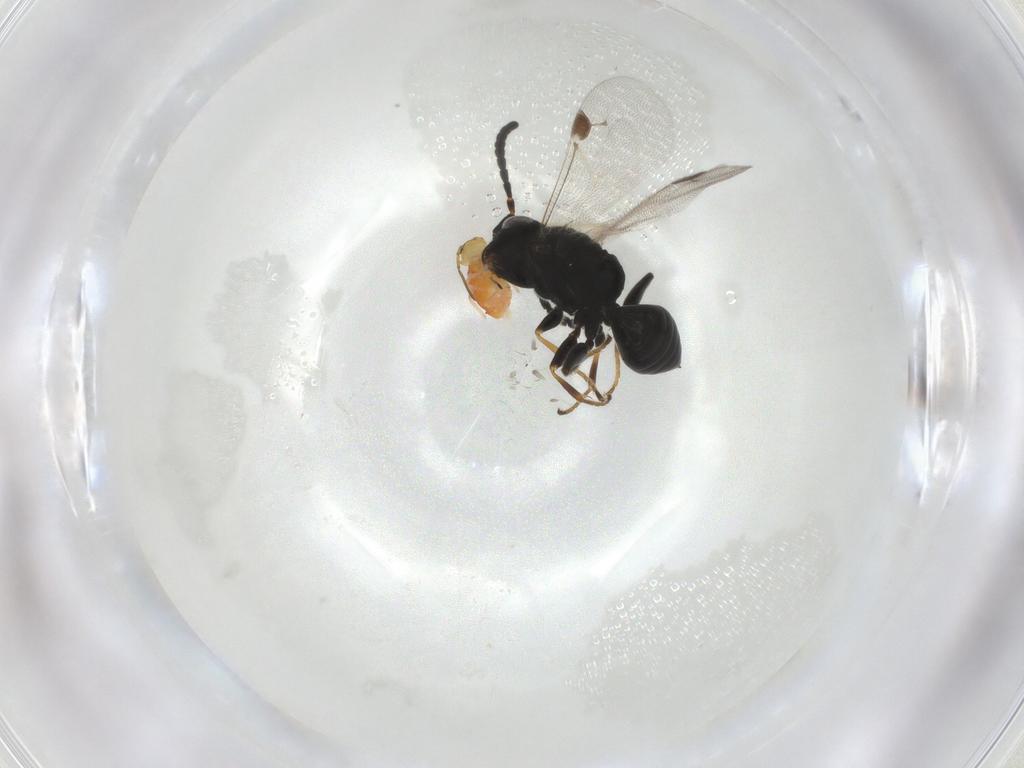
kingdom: Animalia
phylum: Arthropoda
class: Insecta
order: Diptera
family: Chironomidae
